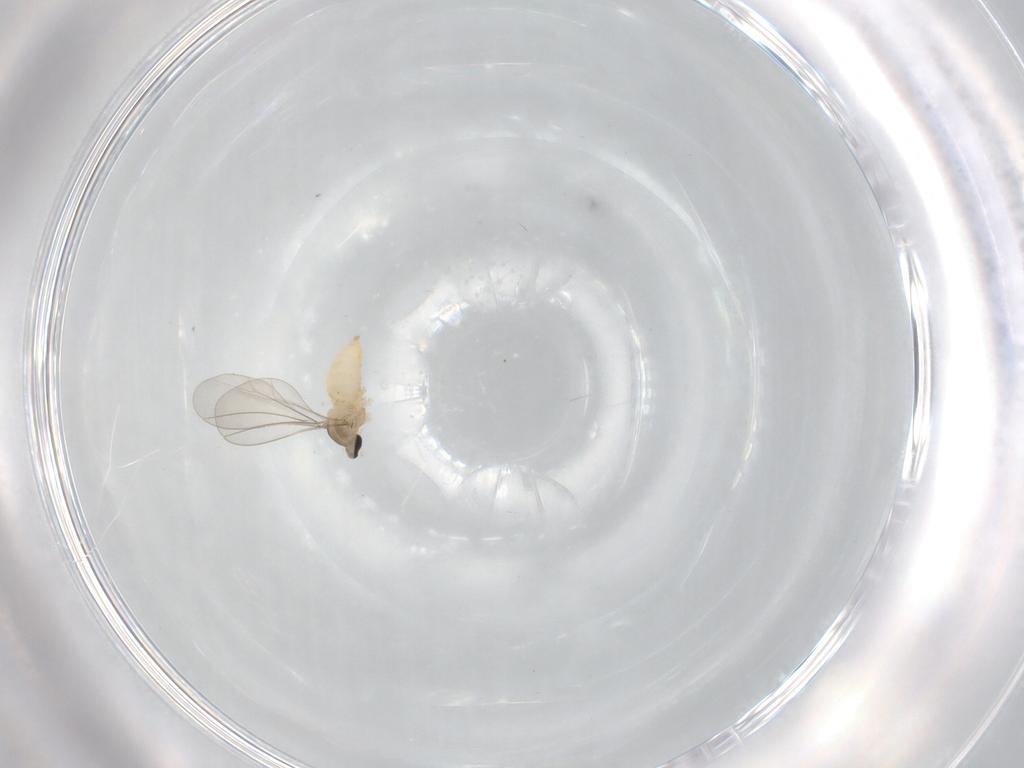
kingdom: Animalia
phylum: Arthropoda
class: Insecta
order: Diptera
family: Cecidomyiidae
